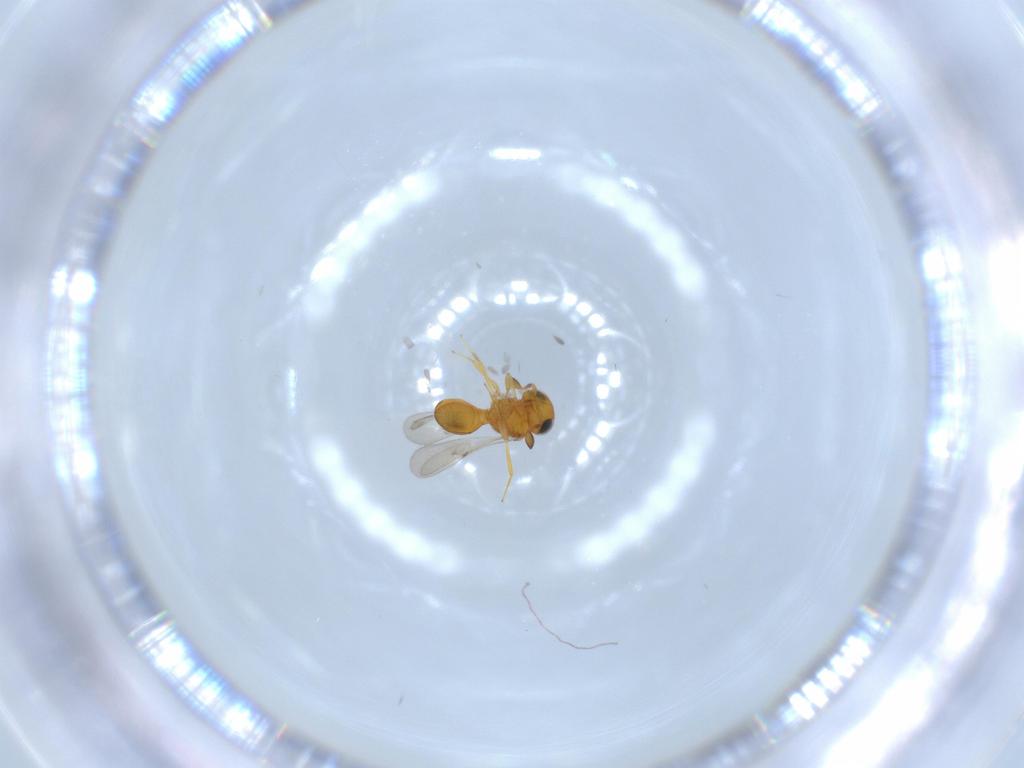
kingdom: Animalia
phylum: Arthropoda
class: Insecta
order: Hymenoptera
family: Scelionidae
